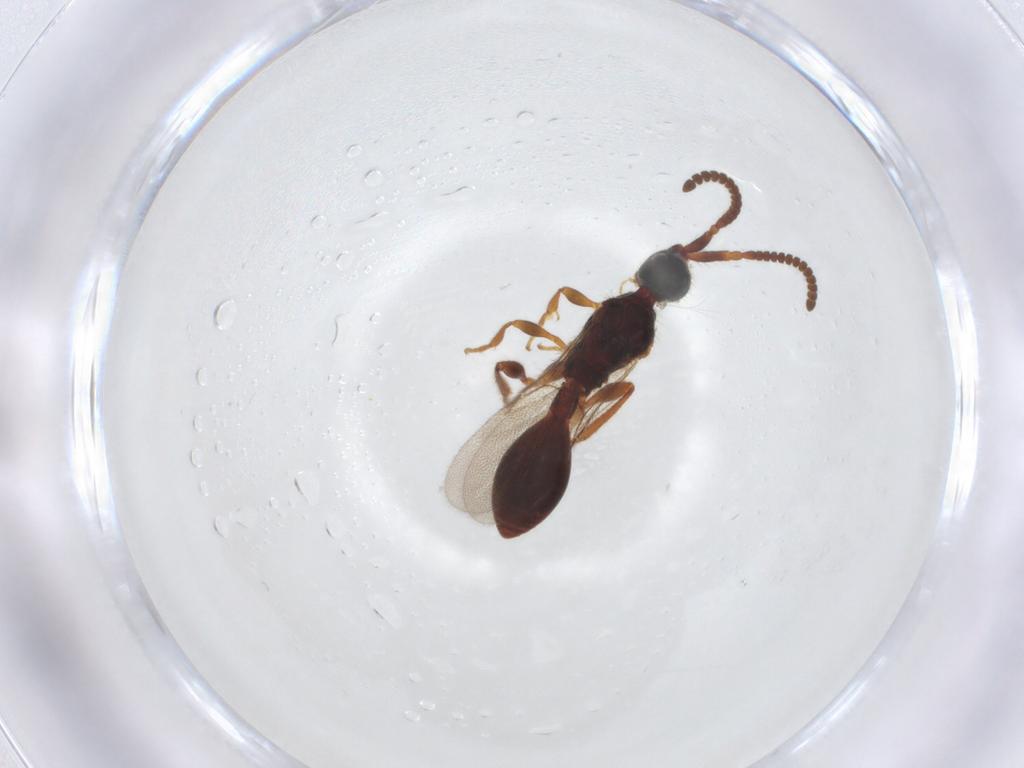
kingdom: Animalia
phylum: Arthropoda
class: Insecta
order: Hymenoptera
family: Diapriidae
